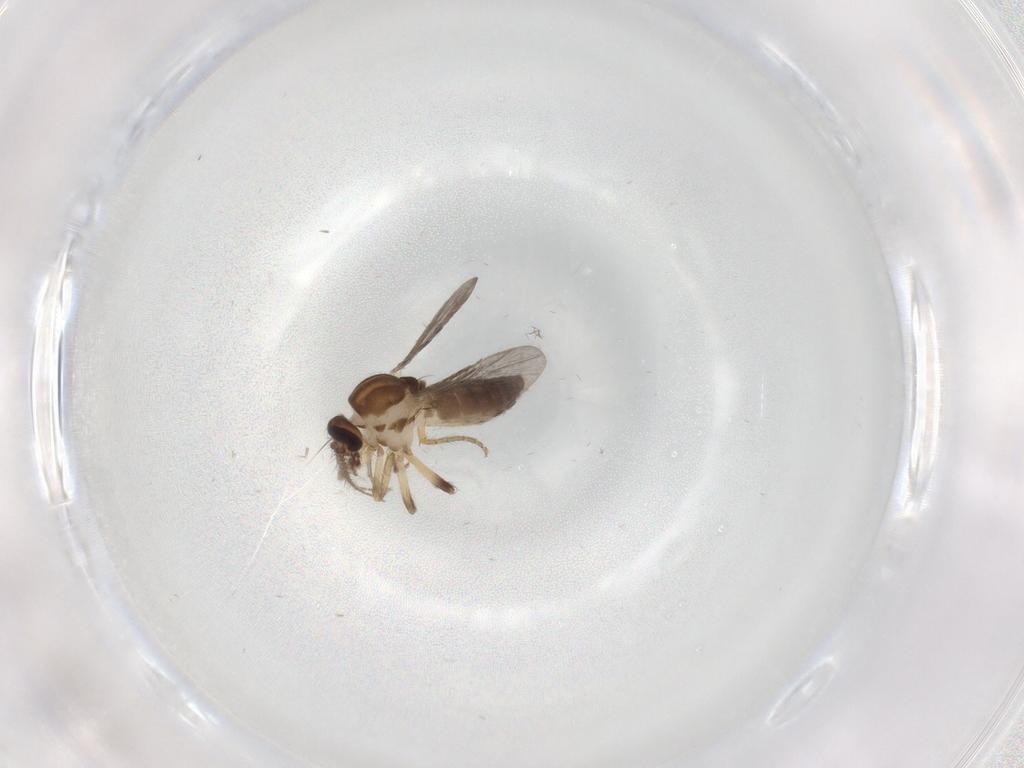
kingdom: Animalia
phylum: Arthropoda
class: Insecta
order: Diptera
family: Ceratopogonidae
